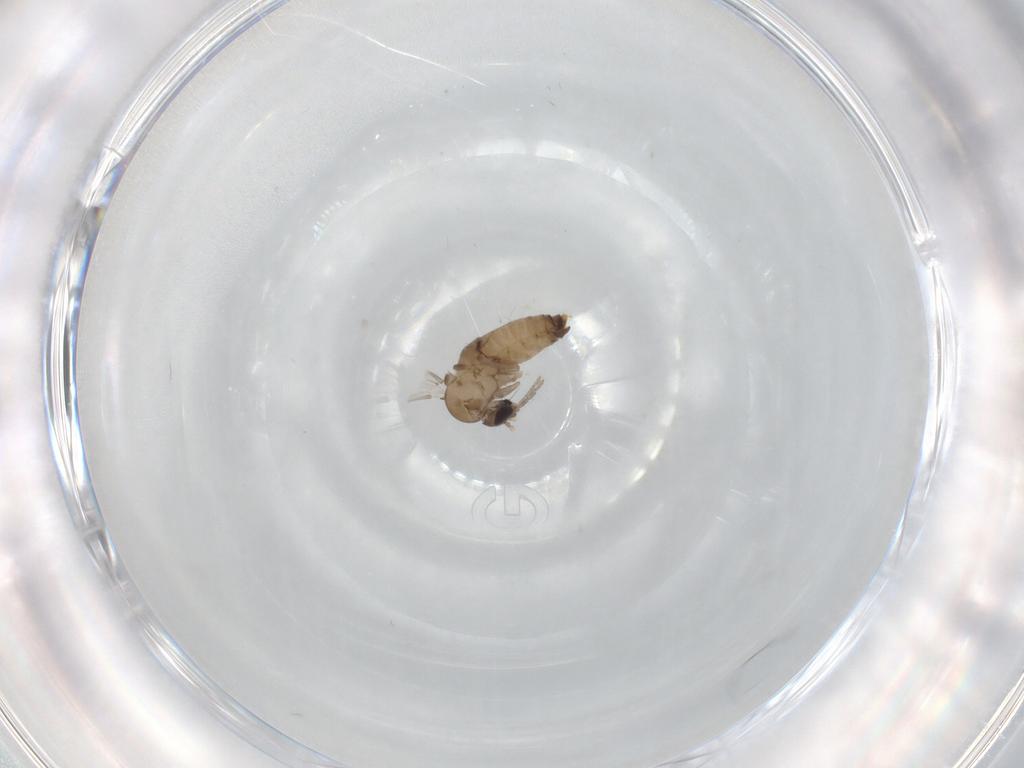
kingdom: Animalia
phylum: Arthropoda
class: Insecta
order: Diptera
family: Psychodidae
